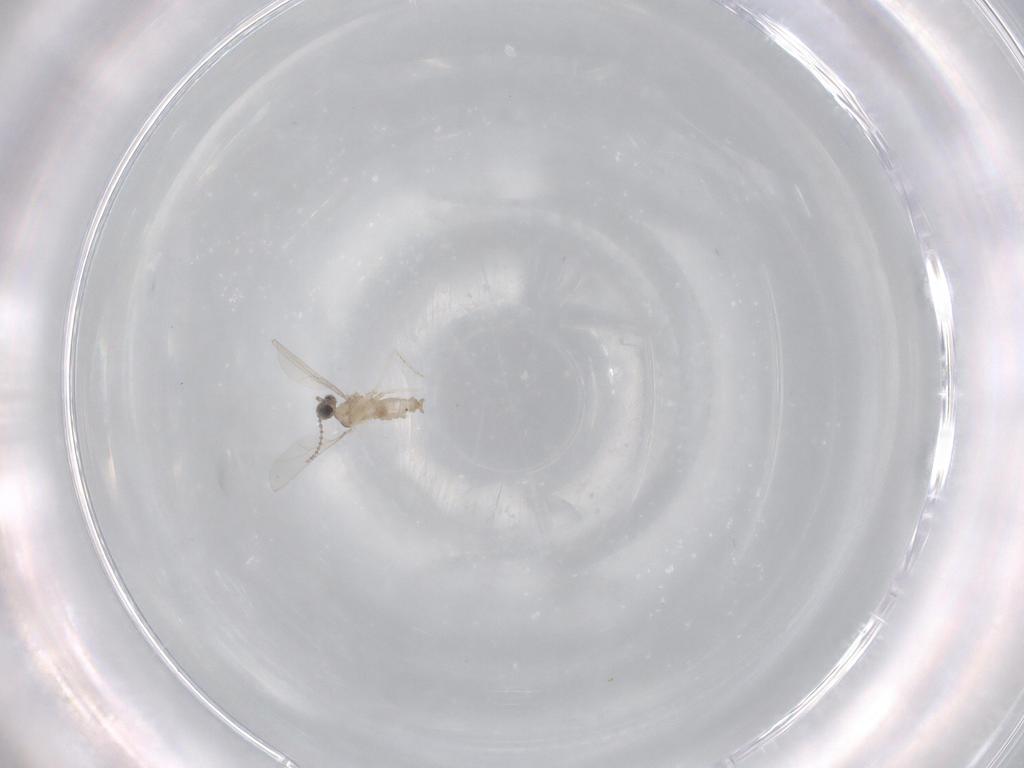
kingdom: Animalia
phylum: Arthropoda
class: Insecta
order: Diptera
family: Cecidomyiidae
